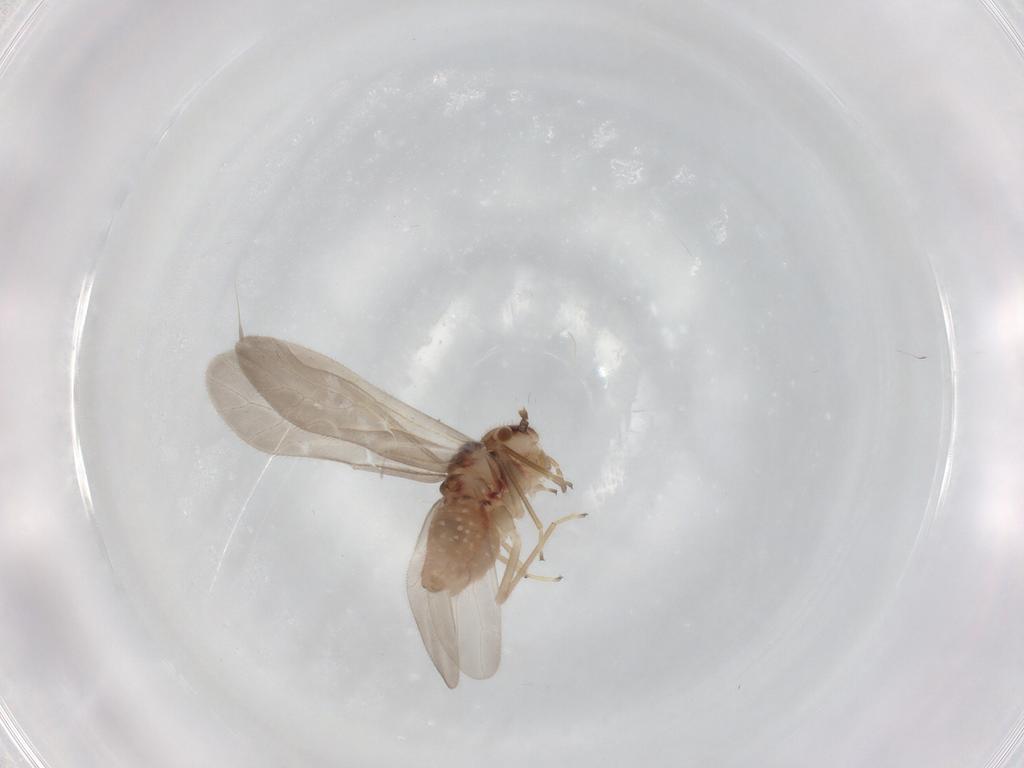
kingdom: Animalia
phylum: Arthropoda
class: Insecta
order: Psocodea
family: Caeciliusidae
